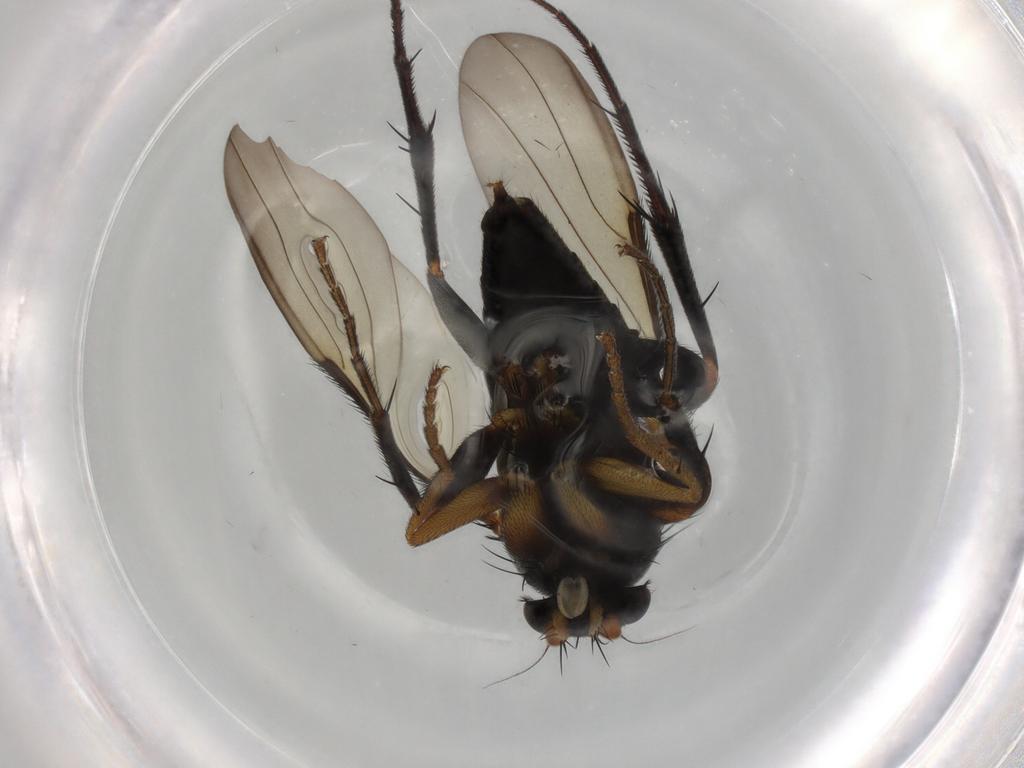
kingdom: Animalia
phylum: Arthropoda
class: Insecta
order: Diptera
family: Phoridae
